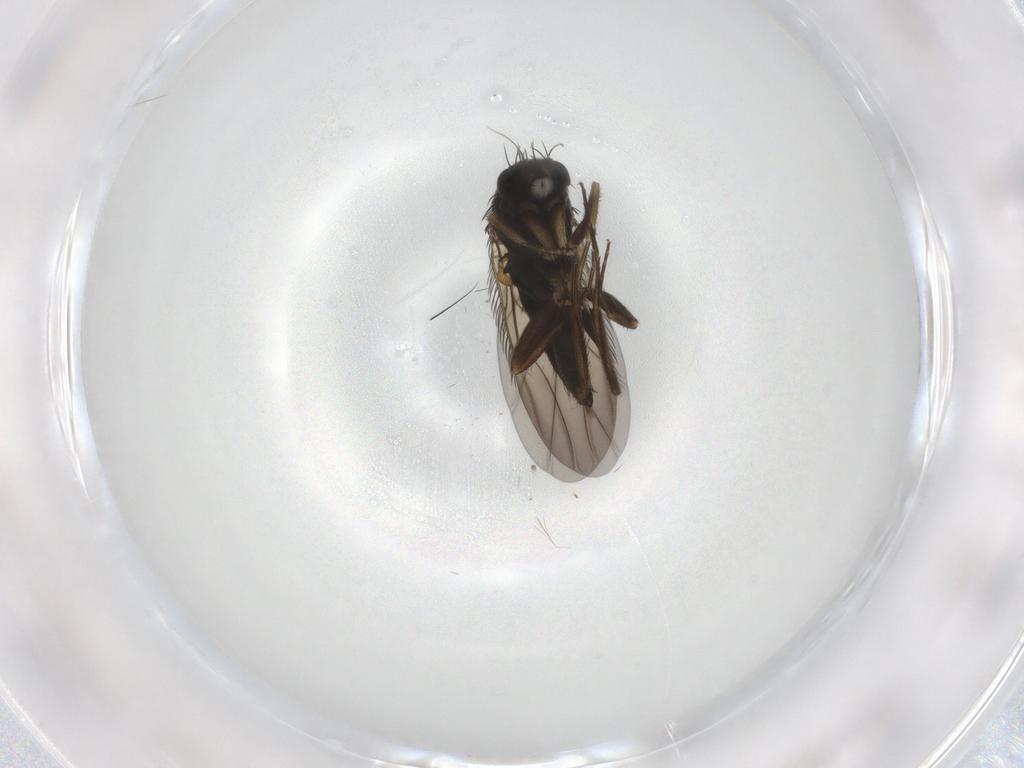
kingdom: Animalia
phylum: Arthropoda
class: Insecta
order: Diptera
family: Phoridae
